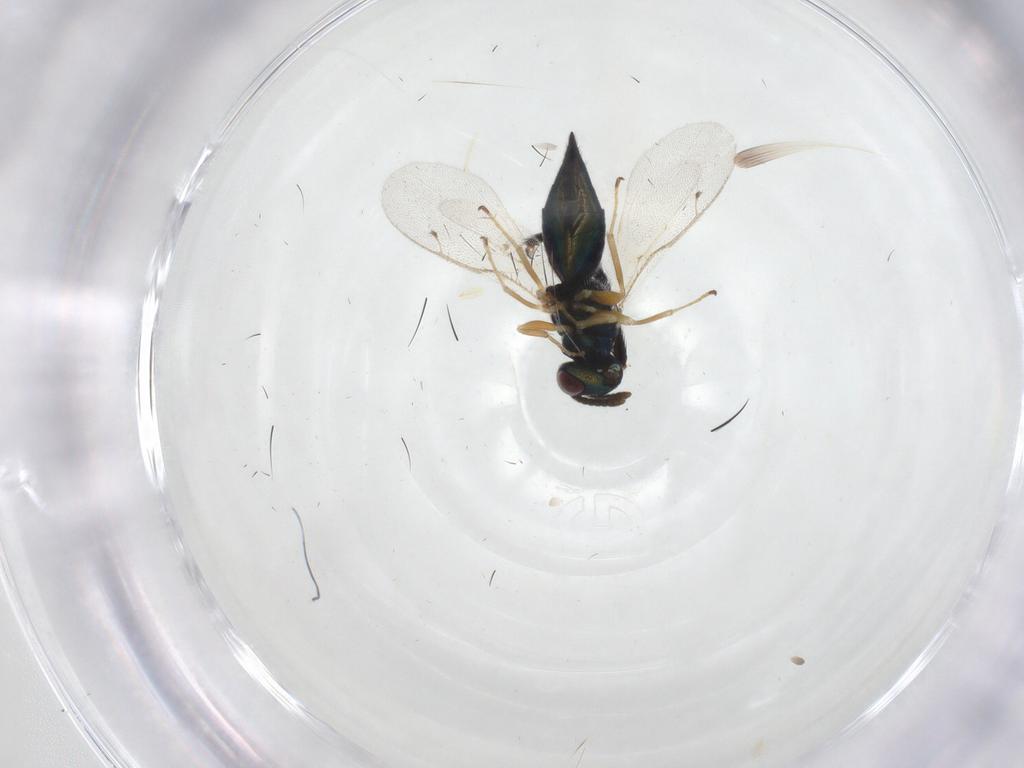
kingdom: Animalia
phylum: Arthropoda
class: Insecta
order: Hymenoptera
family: Pteromalidae
